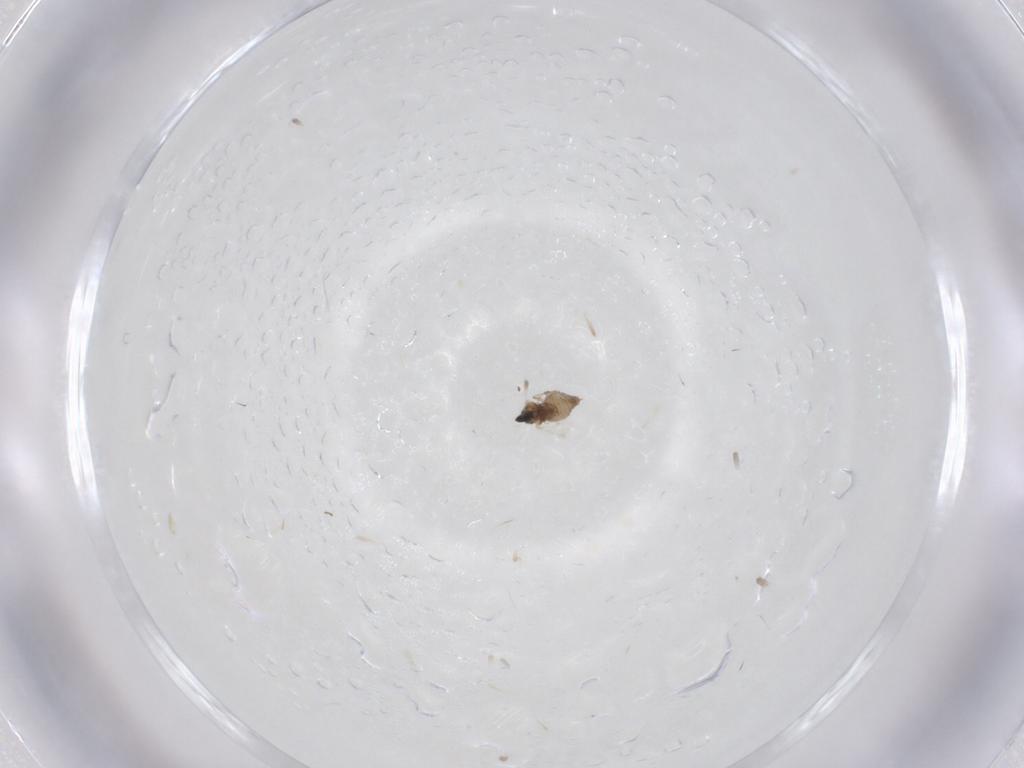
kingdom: Animalia
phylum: Arthropoda
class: Insecta
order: Diptera
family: Cecidomyiidae
